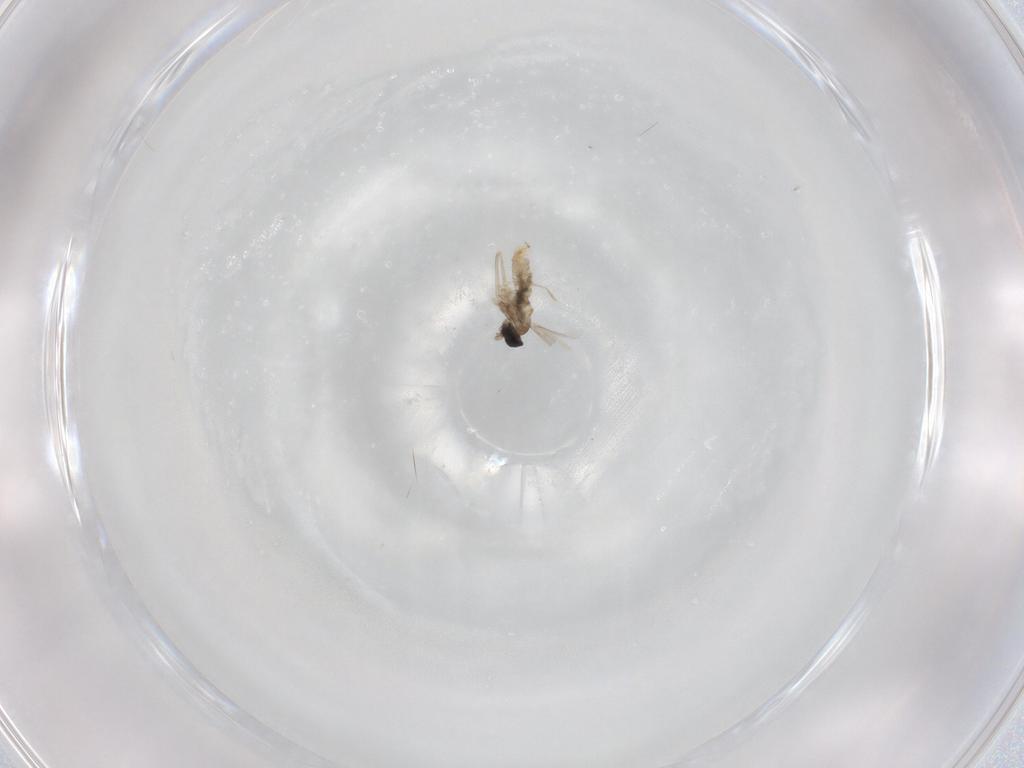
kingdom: Animalia
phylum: Arthropoda
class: Insecta
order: Diptera
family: Cecidomyiidae
